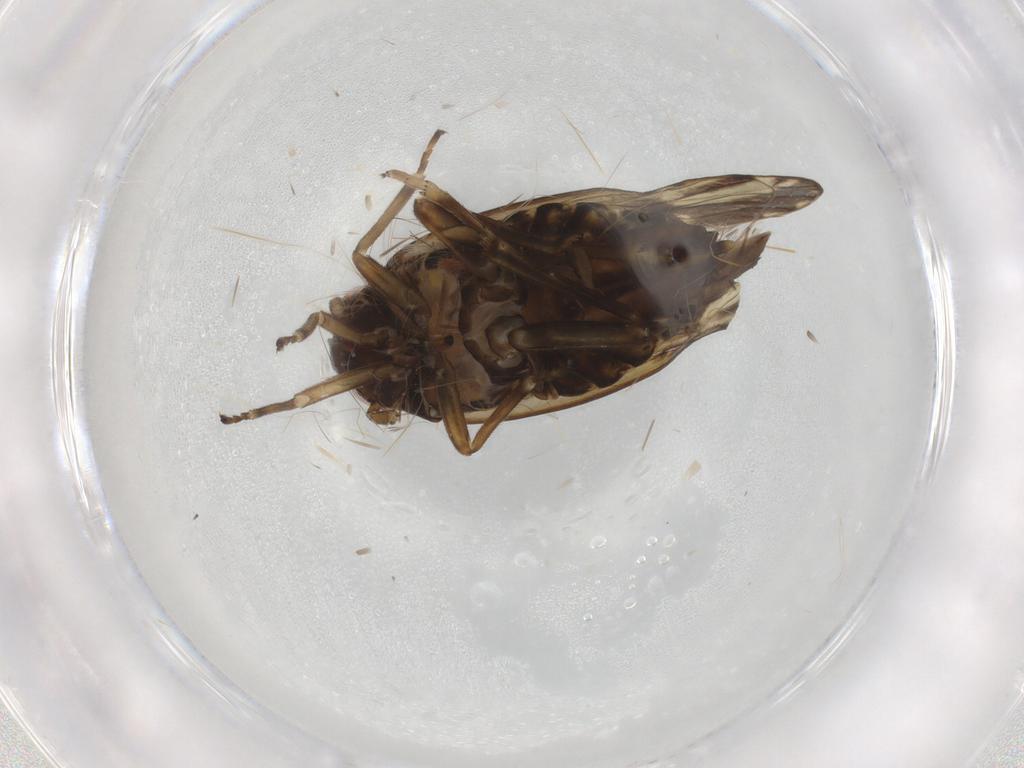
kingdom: Animalia
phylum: Arthropoda
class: Insecta
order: Hemiptera
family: Delphacidae
